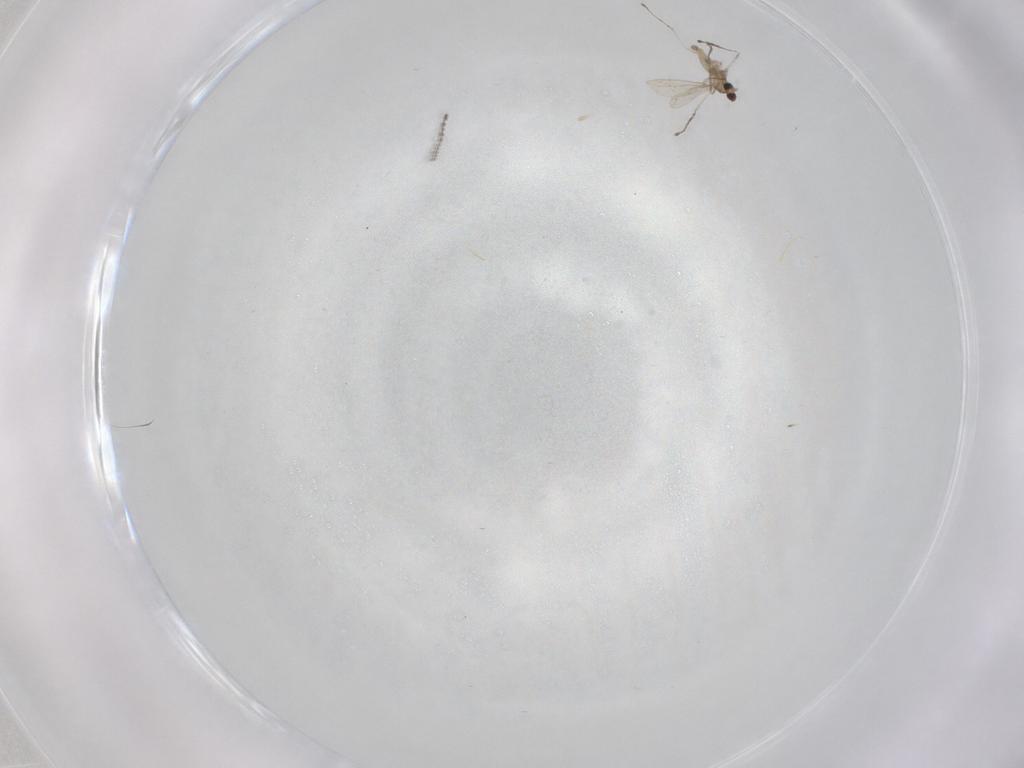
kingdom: Animalia
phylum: Arthropoda
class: Insecta
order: Diptera
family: Cecidomyiidae
